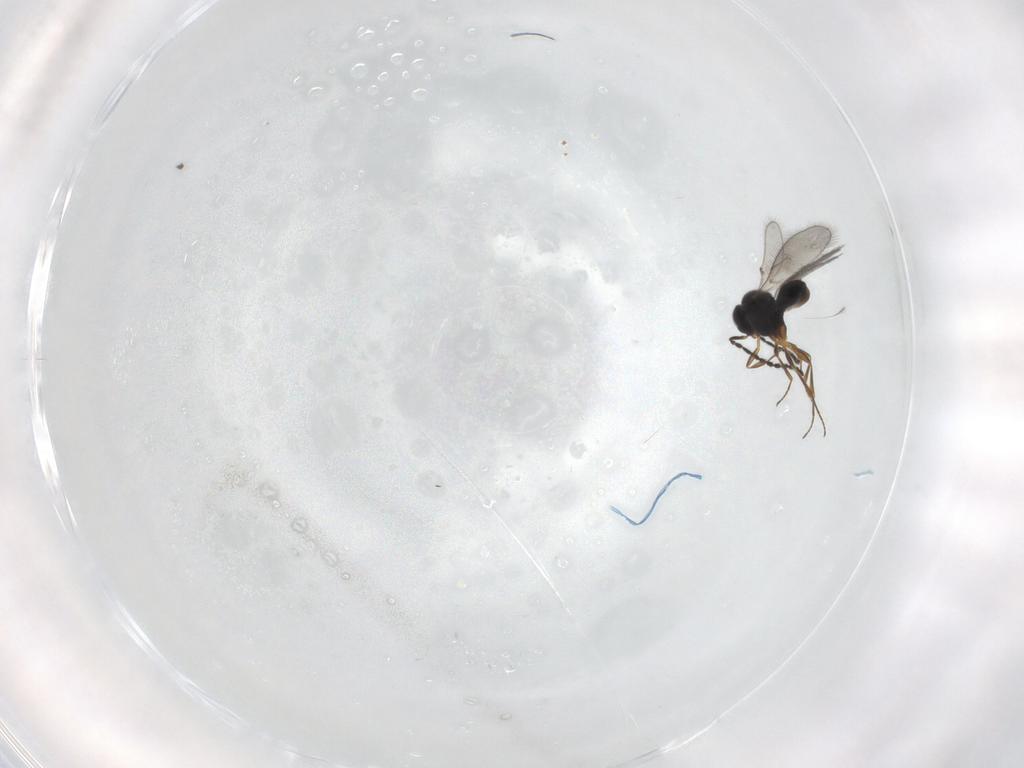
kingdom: Animalia
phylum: Arthropoda
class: Insecta
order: Hymenoptera
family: Scelionidae
